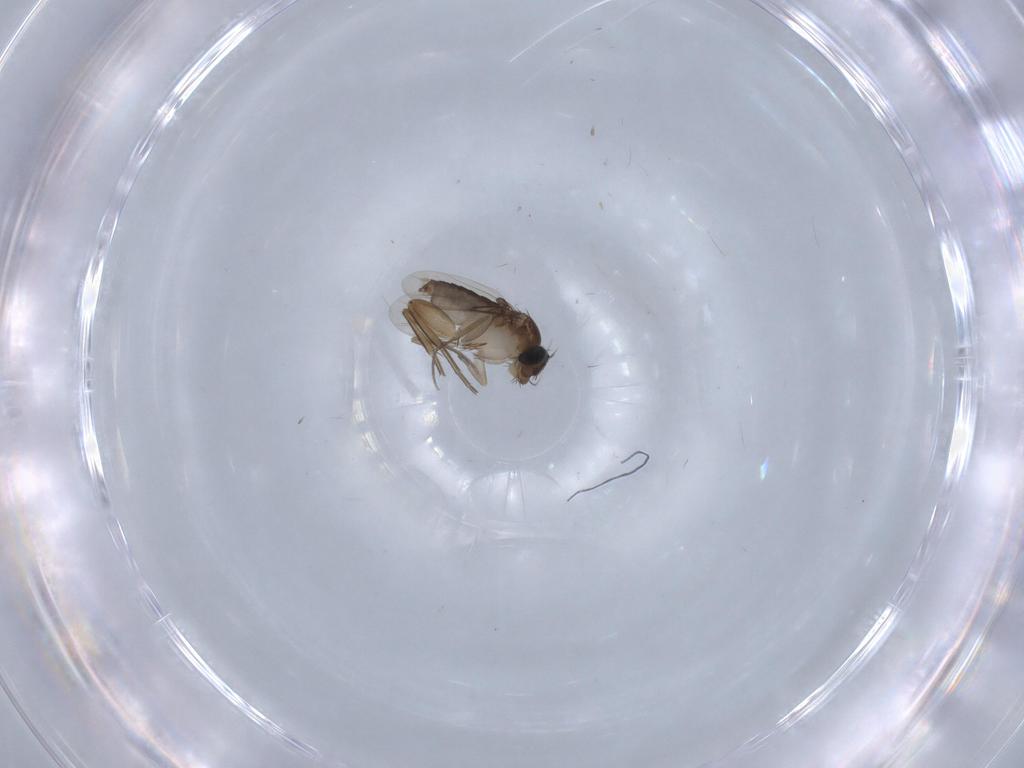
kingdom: Animalia
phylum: Arthropoda
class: Insecta
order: Diptera
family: Phoridae
